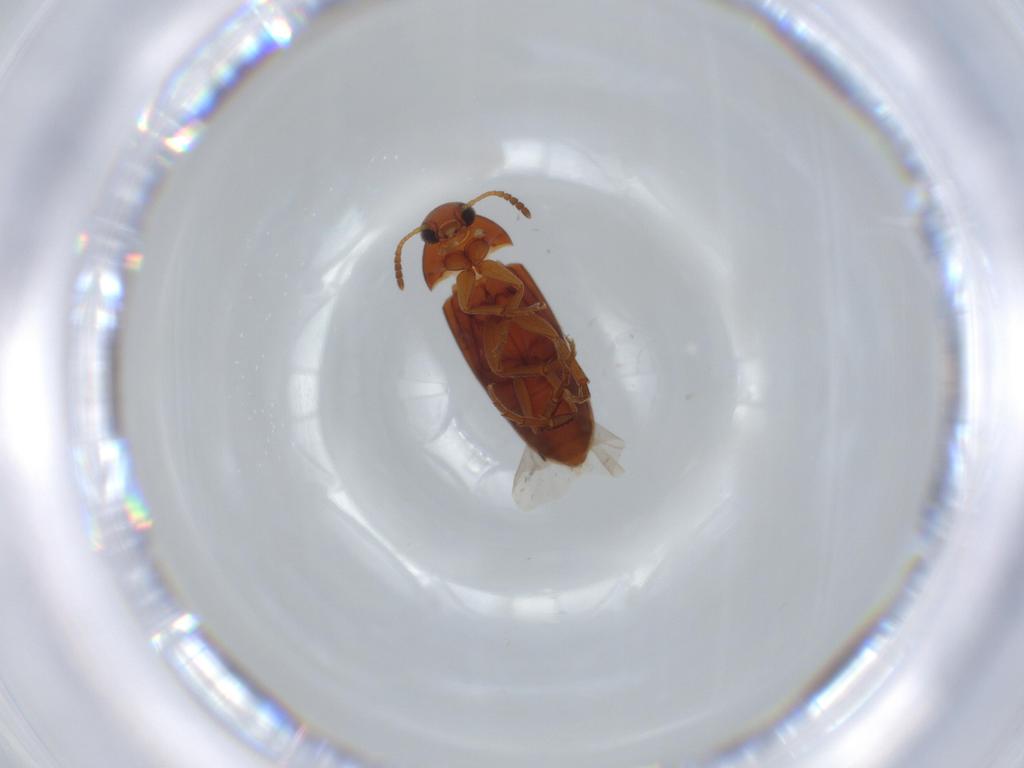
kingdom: Animalia
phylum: Arthropoda
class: Insecta
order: Coleoptera
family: Scraptiidae
